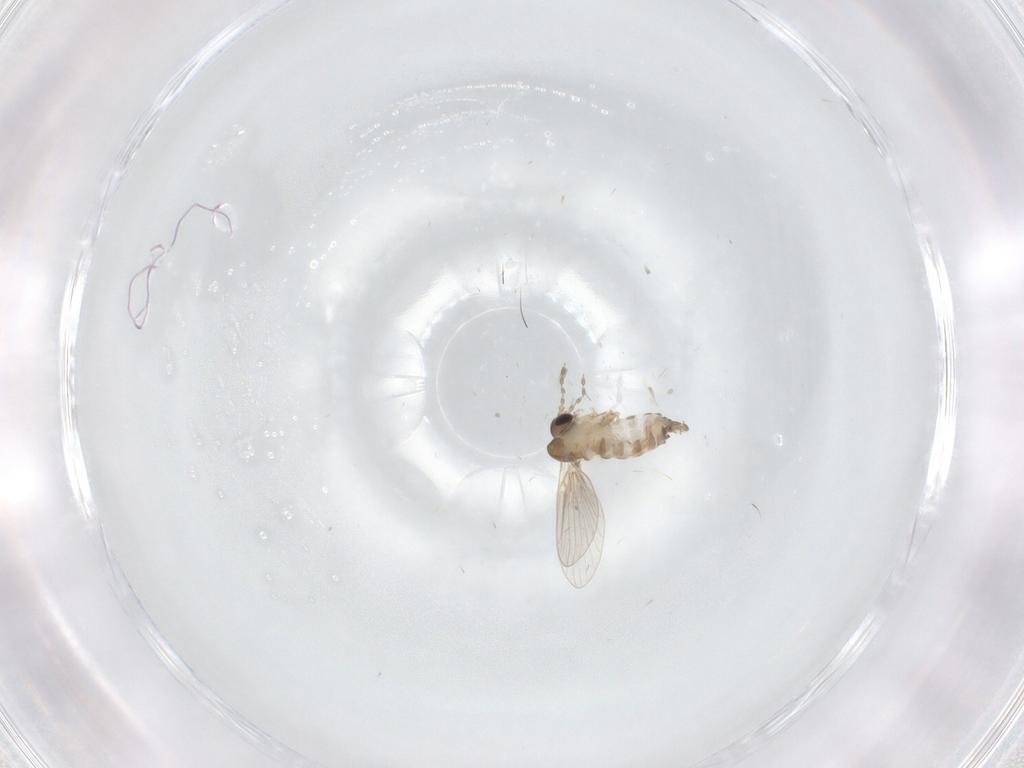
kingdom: Animalia
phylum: Arthropoda
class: Insecta
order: Diptera
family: Ceratopogonidae
